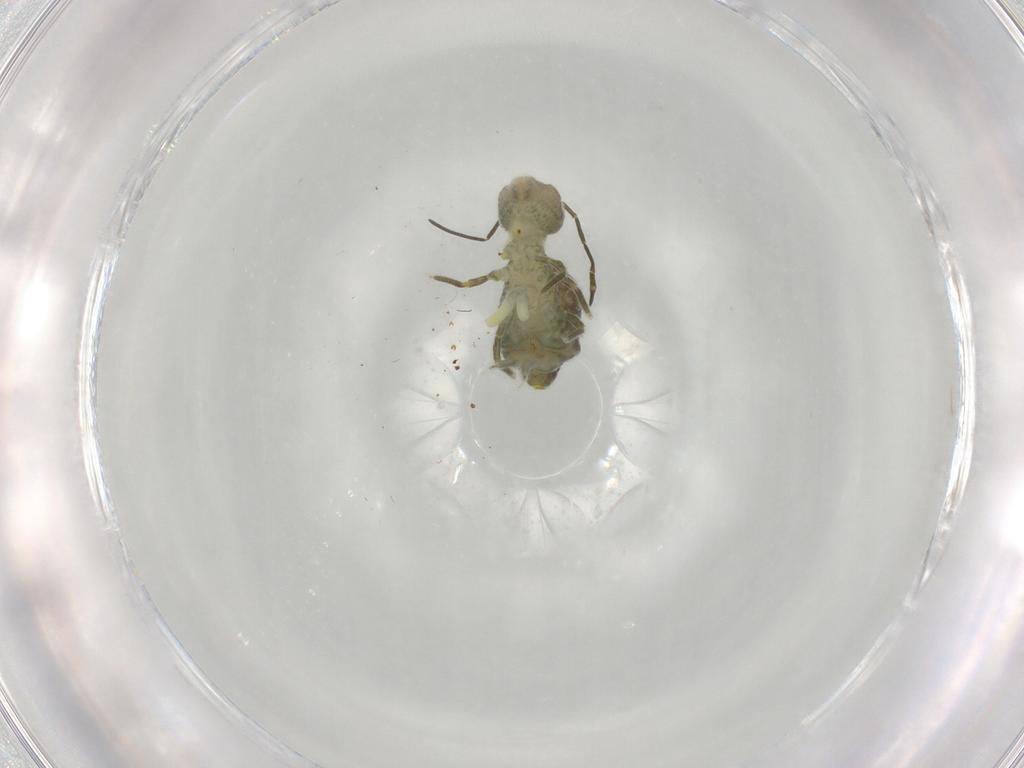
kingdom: Animalia
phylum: Arthropoda
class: Collembola
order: Symphypleona
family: Sminthuridae
